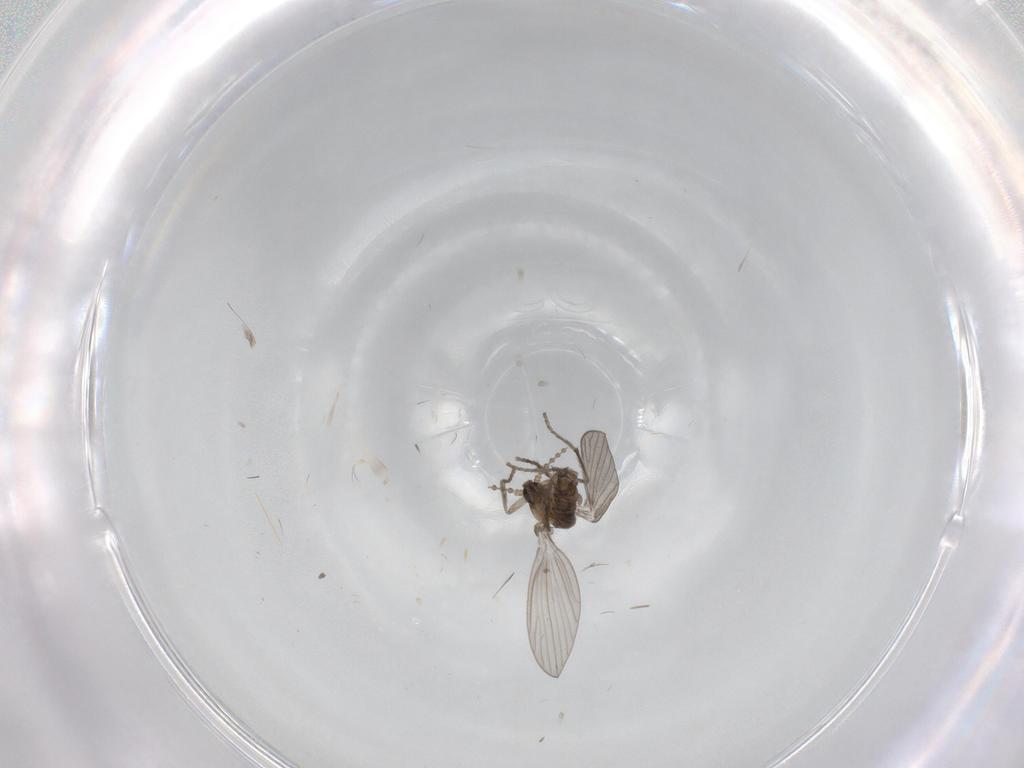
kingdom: Animalia
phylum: Arthropoda
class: Insecta
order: Diptera
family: Psychodidae
